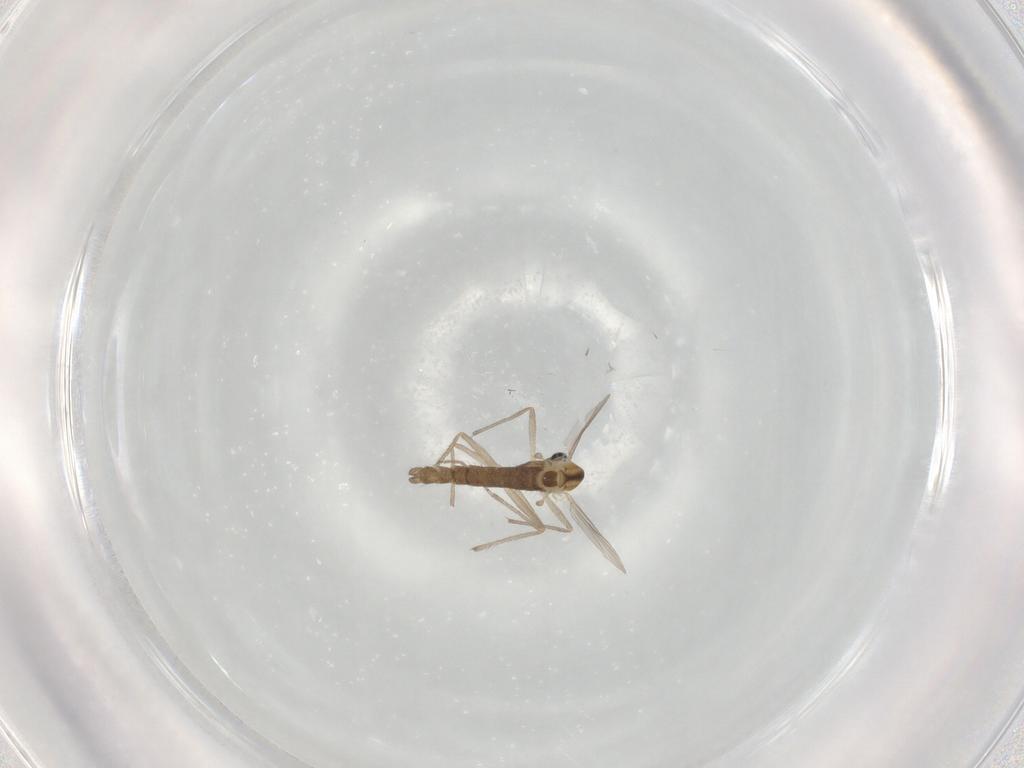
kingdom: Animalia
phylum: Arthropoda
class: Insecta
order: Diptera
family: Chironomidae
